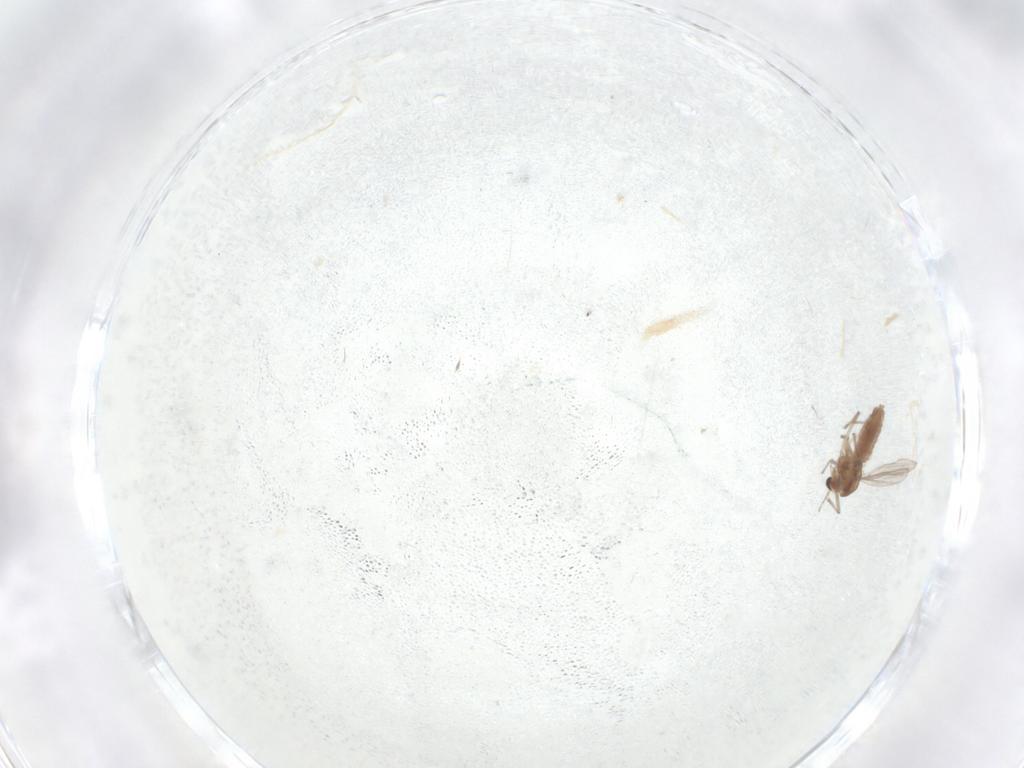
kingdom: Animalia
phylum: Arthropoda
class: Insecta
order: Diptera
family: Chironomidae
